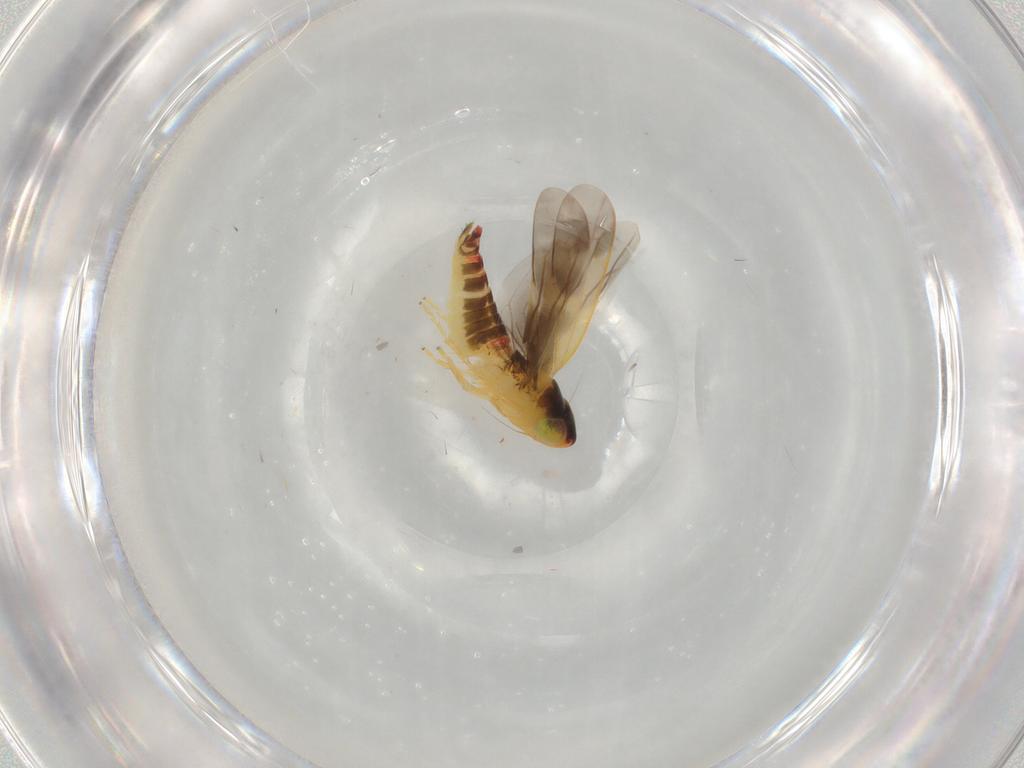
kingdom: Animalia
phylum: Arthropoda
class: Insecta
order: Hemiptera
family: Cicadellidae
